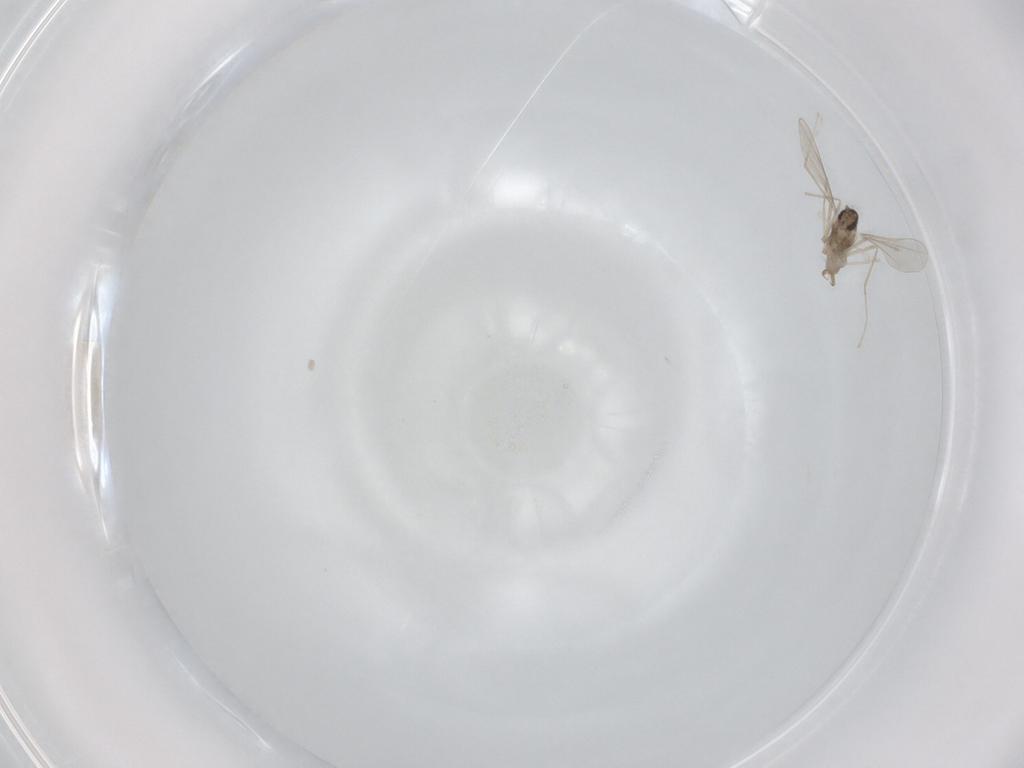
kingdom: Animalia
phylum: Arthropoda
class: Insecta
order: Diptera
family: Cecidomyiidae
